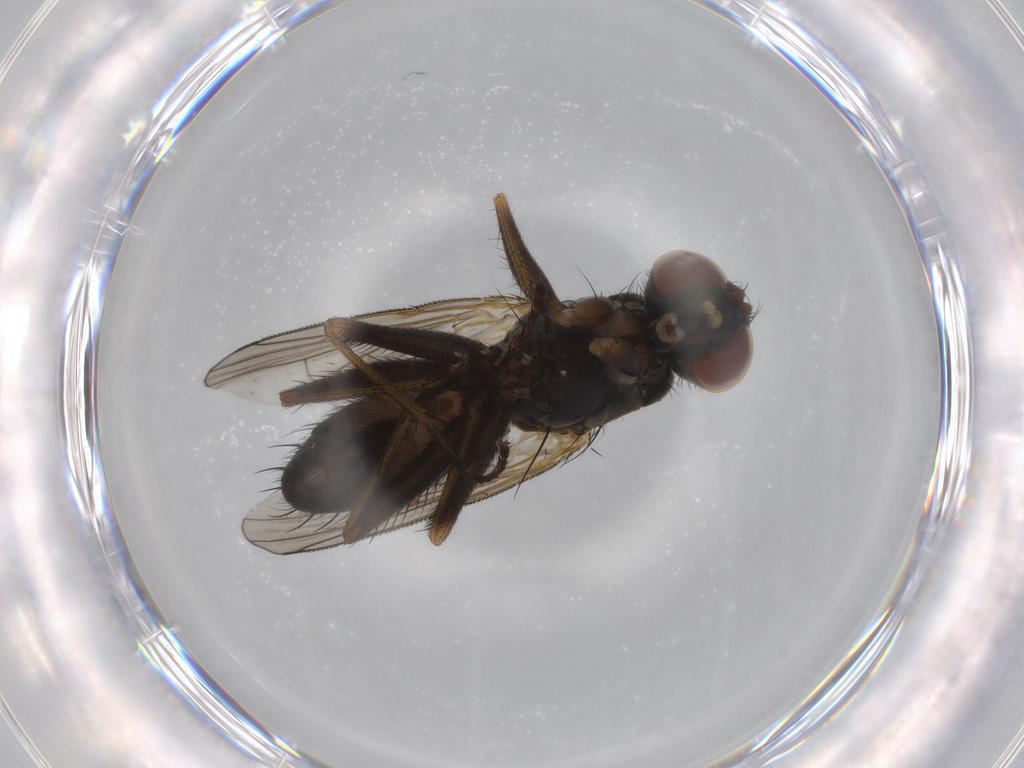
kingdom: Animalia
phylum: Arthropoda
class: Insecta
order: Diptera
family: Muscidae
